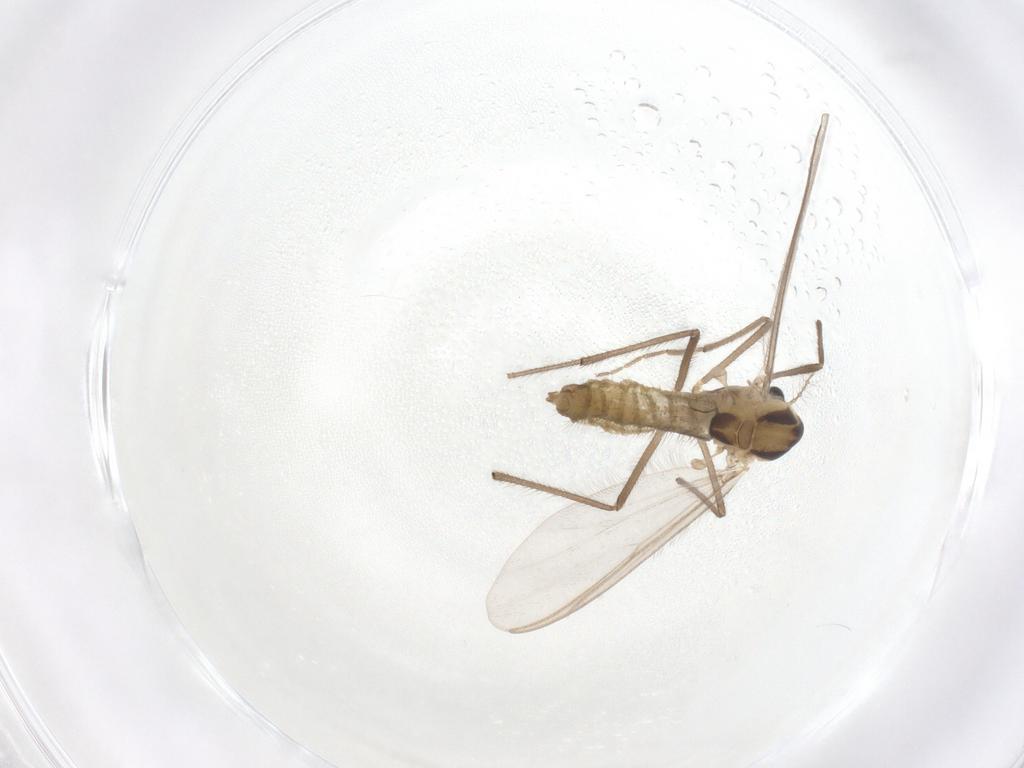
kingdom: Animalia
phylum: Arthropoda
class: Insecta
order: Diptera
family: Chironomidae
